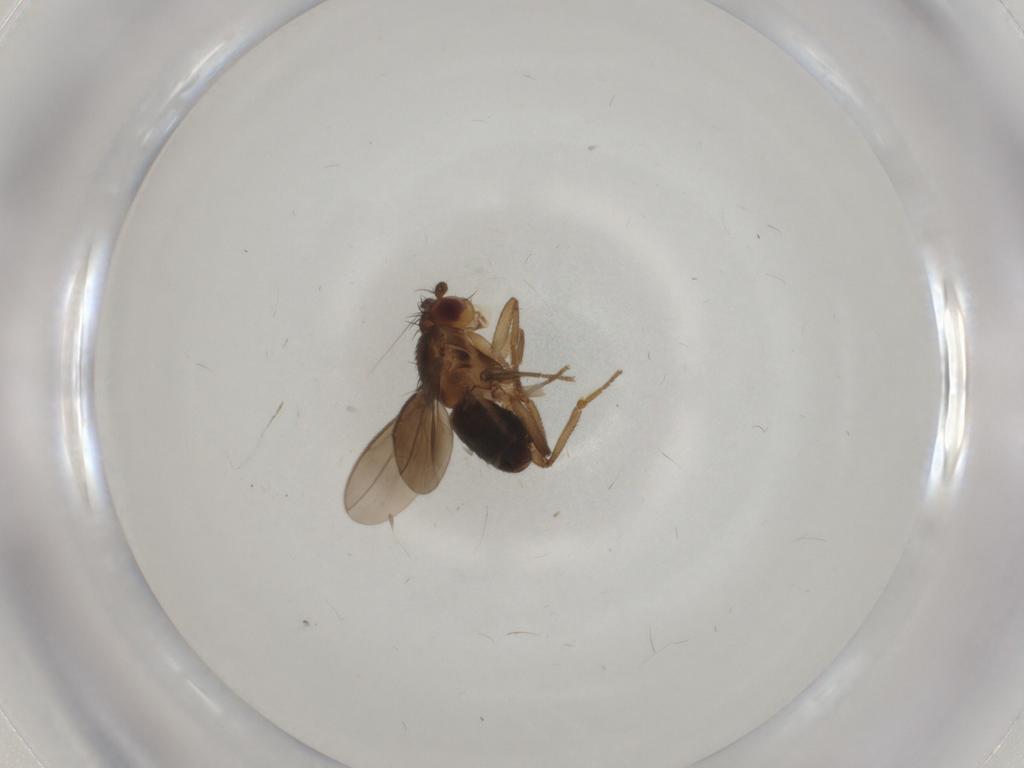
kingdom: Animalia
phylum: Arthropoda
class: Insecta
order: Diptera
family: Sphaeroceridae
